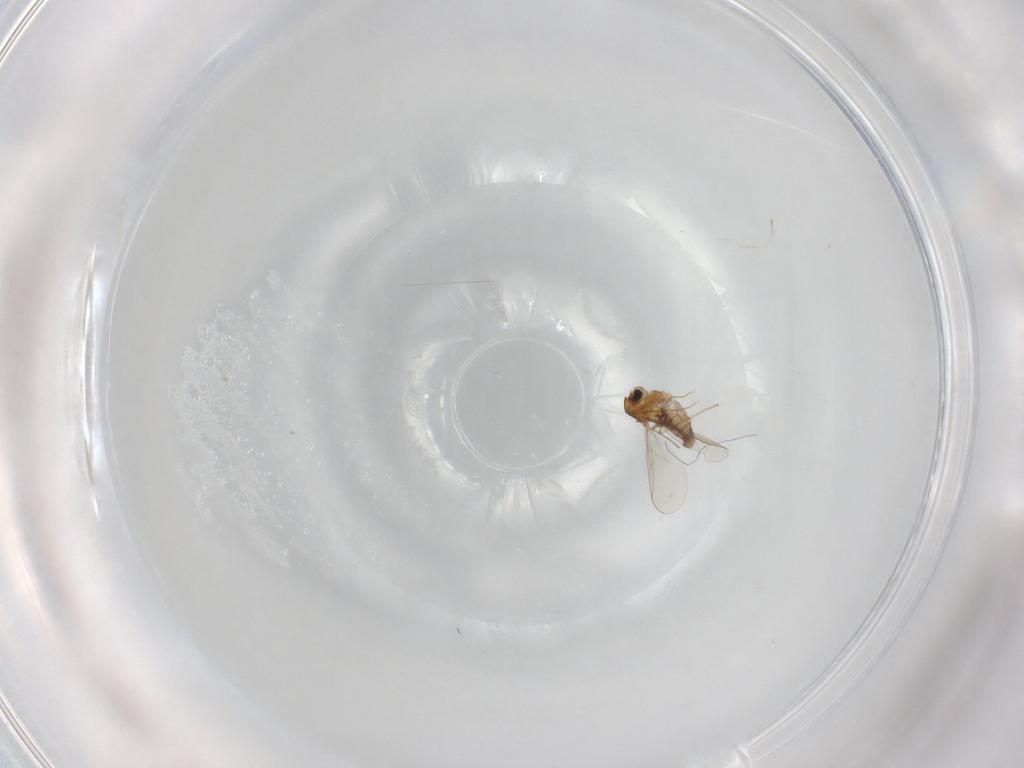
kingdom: Animalia
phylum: Arthropoda
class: Insecta
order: Diptera
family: Chironomidae
